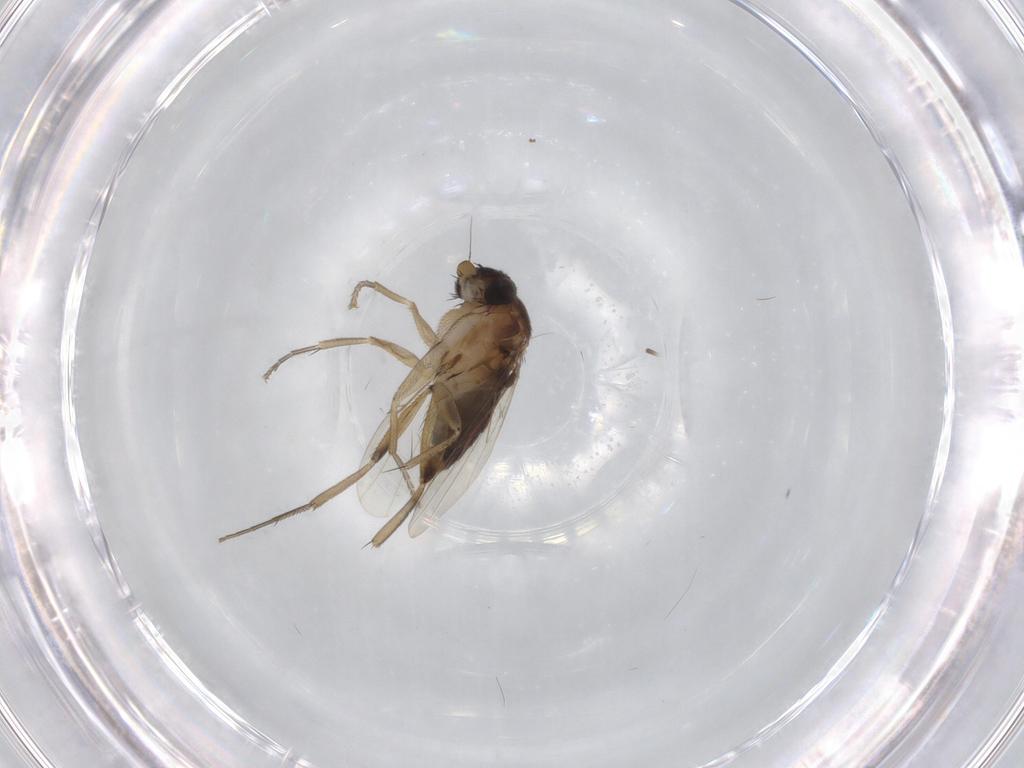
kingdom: Animalia
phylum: Arthropoda
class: Insecta
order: Diptera
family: Phoridae
